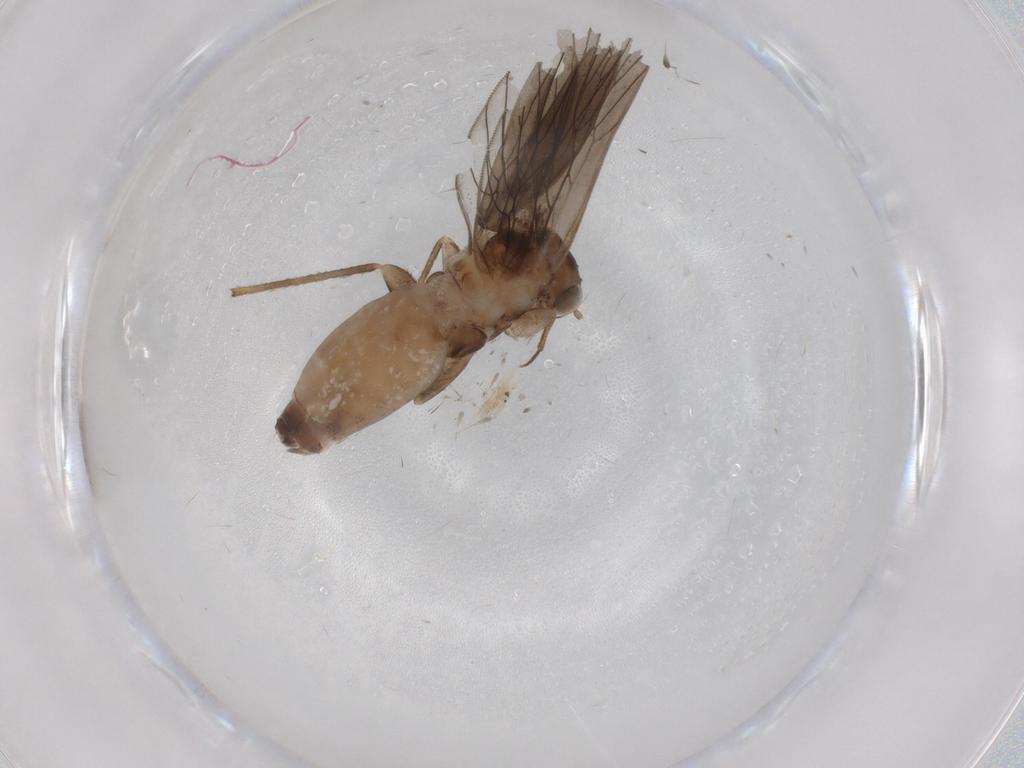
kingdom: Animalia
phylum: Arthropoda
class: Insecta
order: Psocodea
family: Lepidopsocidae
